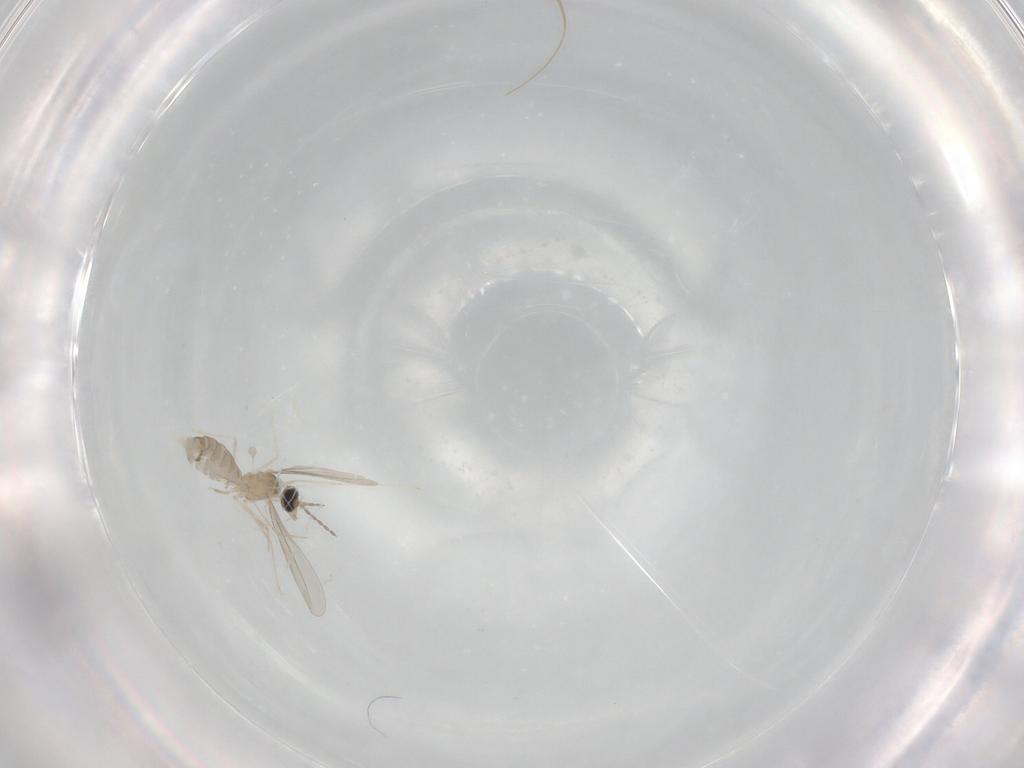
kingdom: Animalia
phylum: Arthropoda
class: Insecta
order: Diptera
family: Cecidomyiidae
